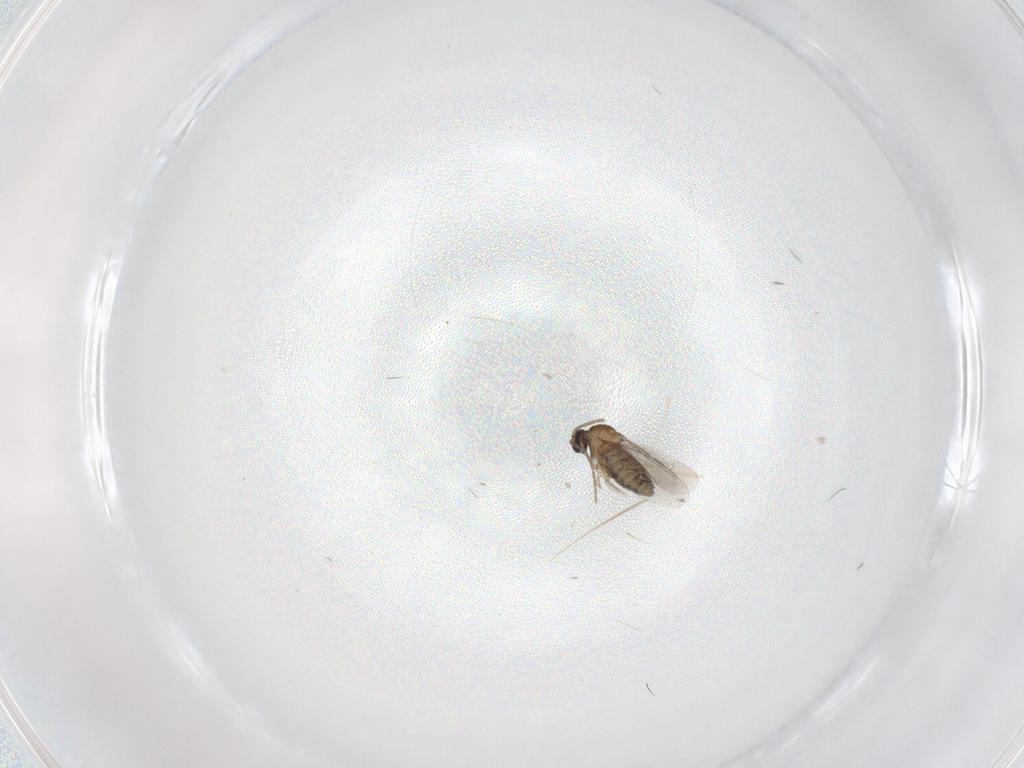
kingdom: Animalia
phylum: Arthropoda
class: Insecta
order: Diptera
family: Cecidomyiidae
